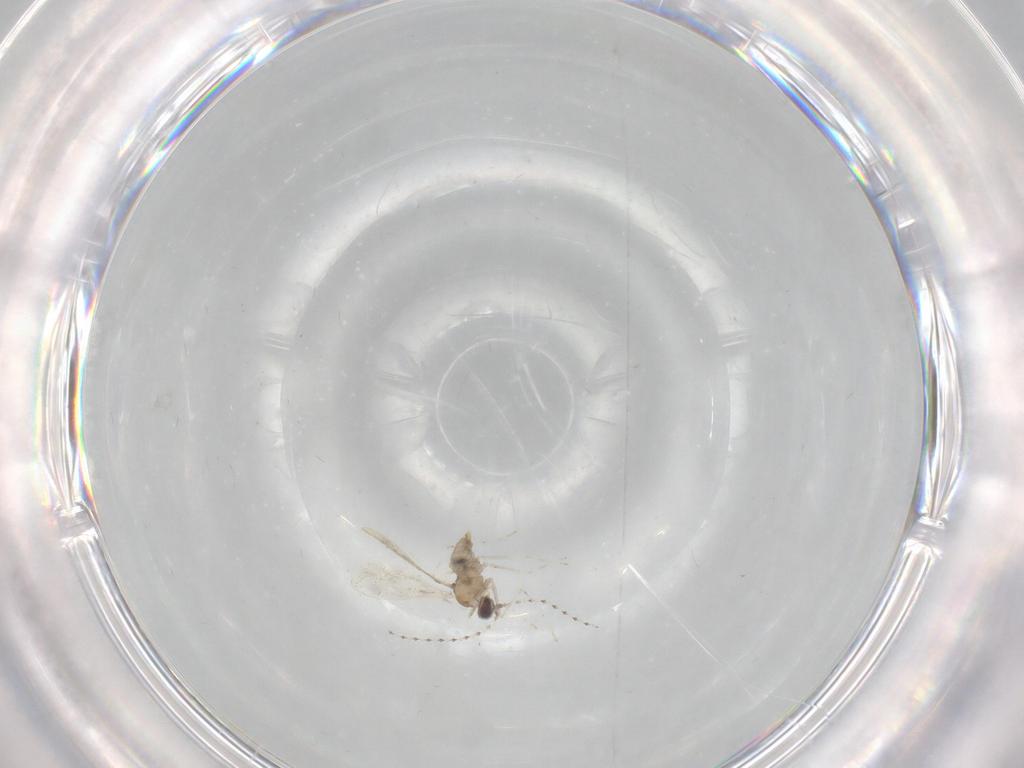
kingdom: Animalia
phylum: Arthropoda
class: Insecta
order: Diptera
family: Cecidomyiidae
